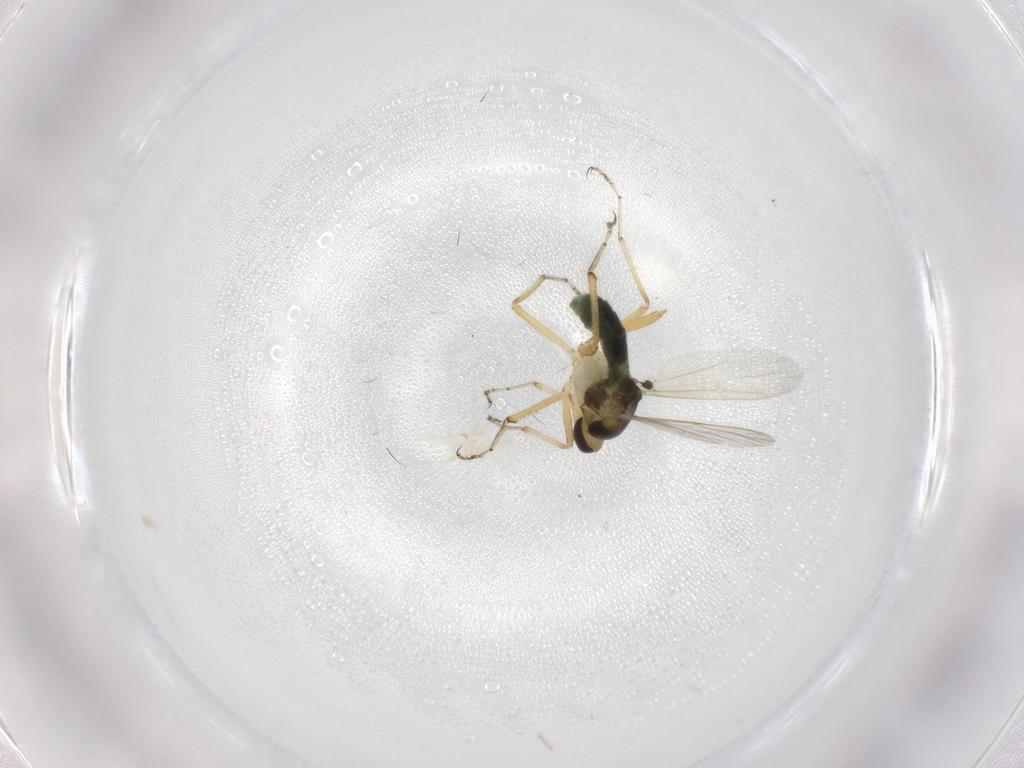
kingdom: Animalia
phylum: Arthropoda
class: Insecta
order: Diptera
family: Ceratopogonidae
